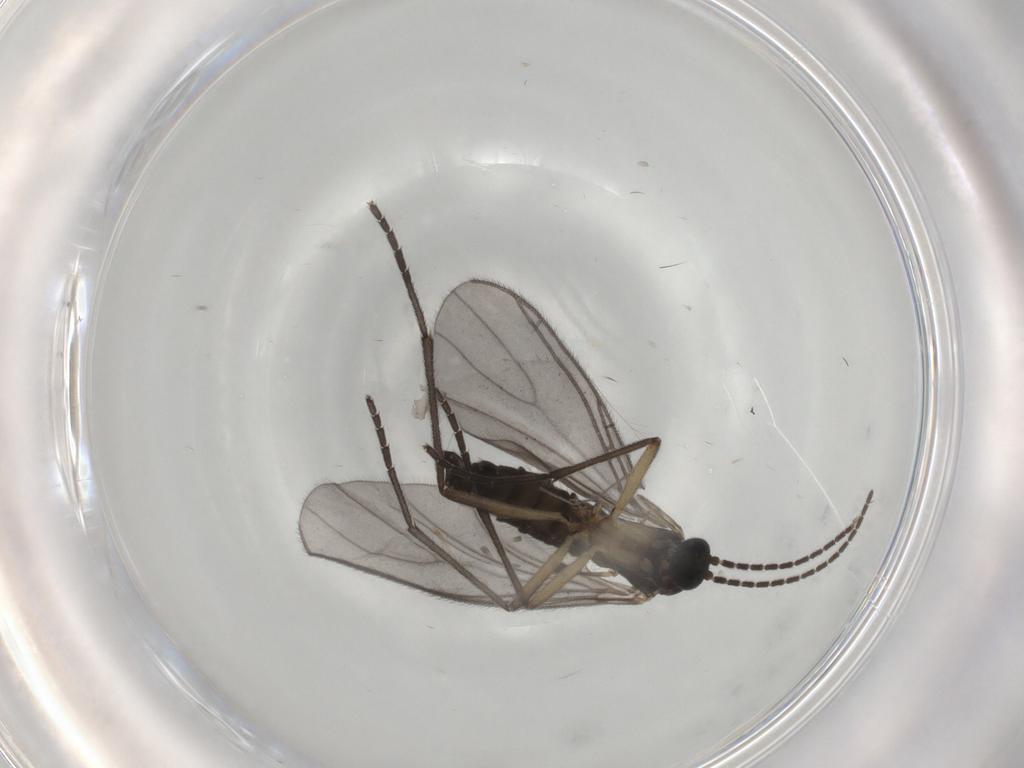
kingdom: Animalia
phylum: Arthropoda
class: Insecta
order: Diptera
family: Sciaridae
